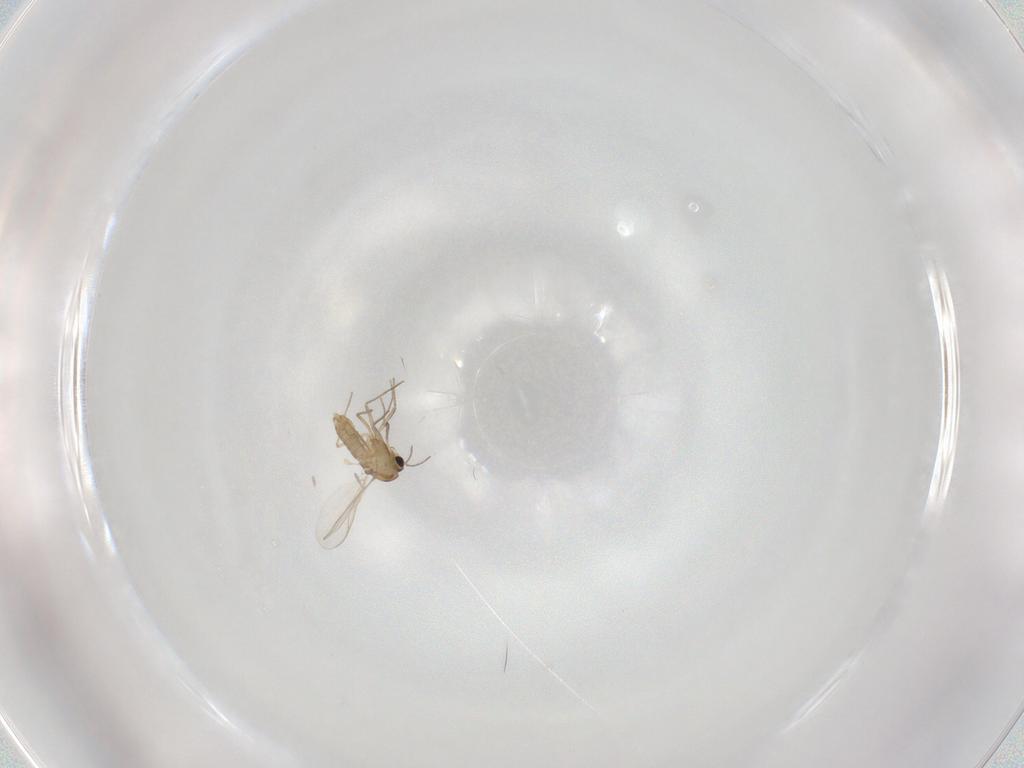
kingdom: Animalia
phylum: Arthropoda
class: Insecta
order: Diptera
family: Chironomidae
